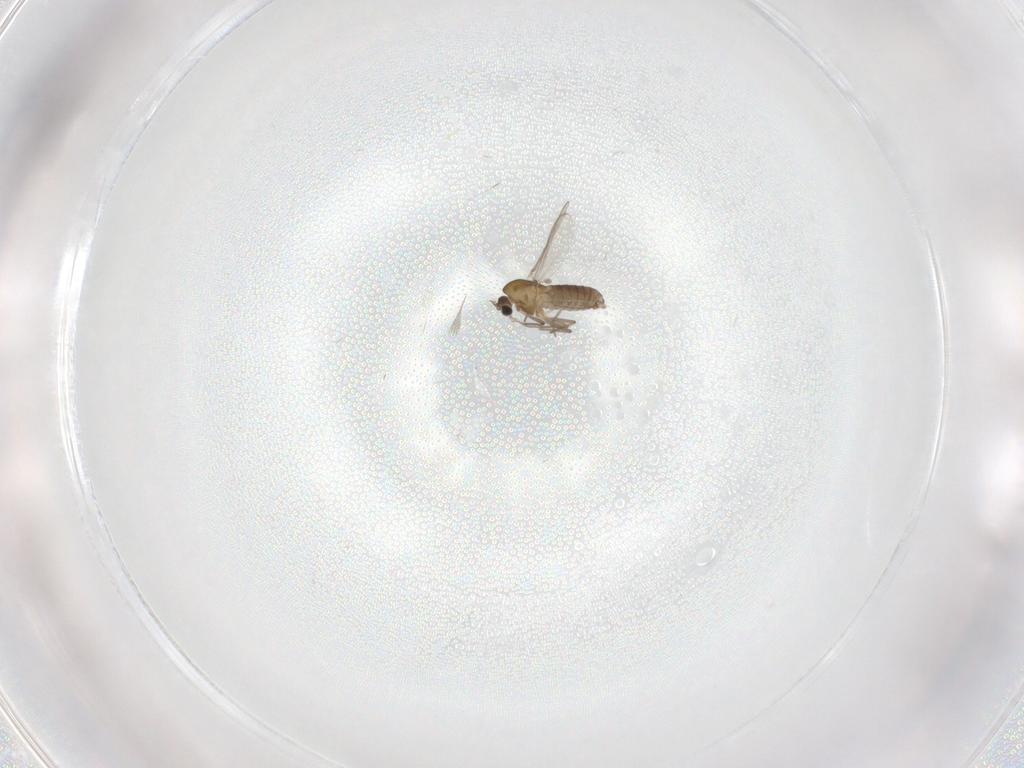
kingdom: Animalia
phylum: Arthropoda
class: Insecta
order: Diptera
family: Chironomidae
